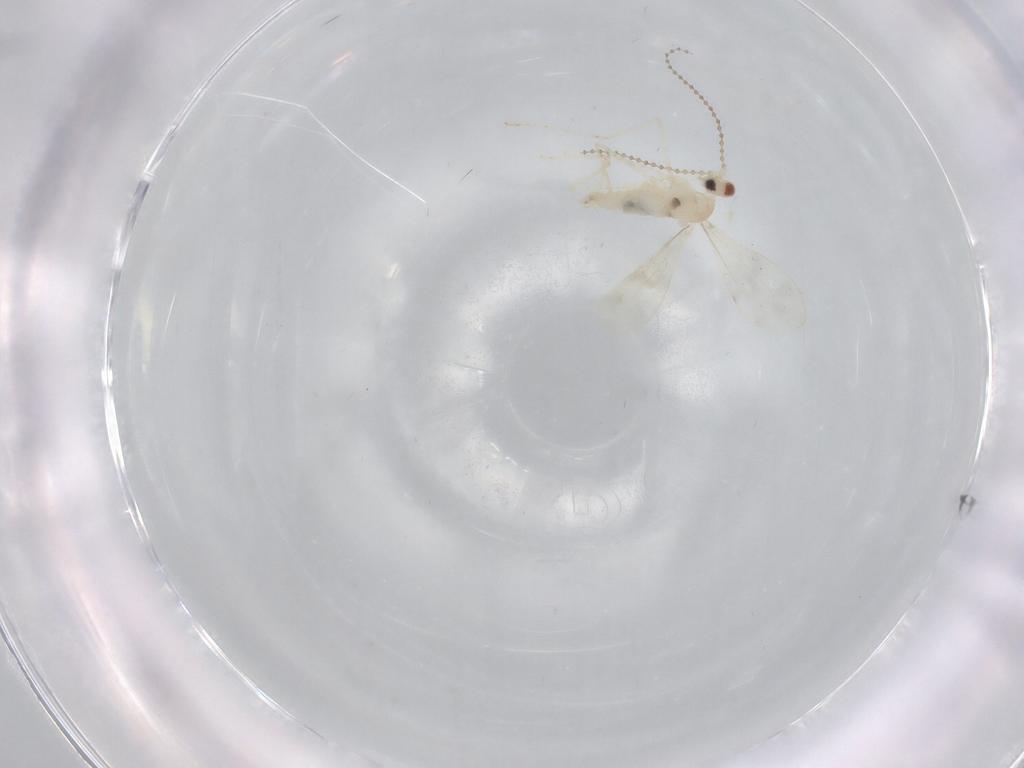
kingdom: Animalia
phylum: Arthropoda
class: Insecta
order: Diptera
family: Cecidomyiidae
